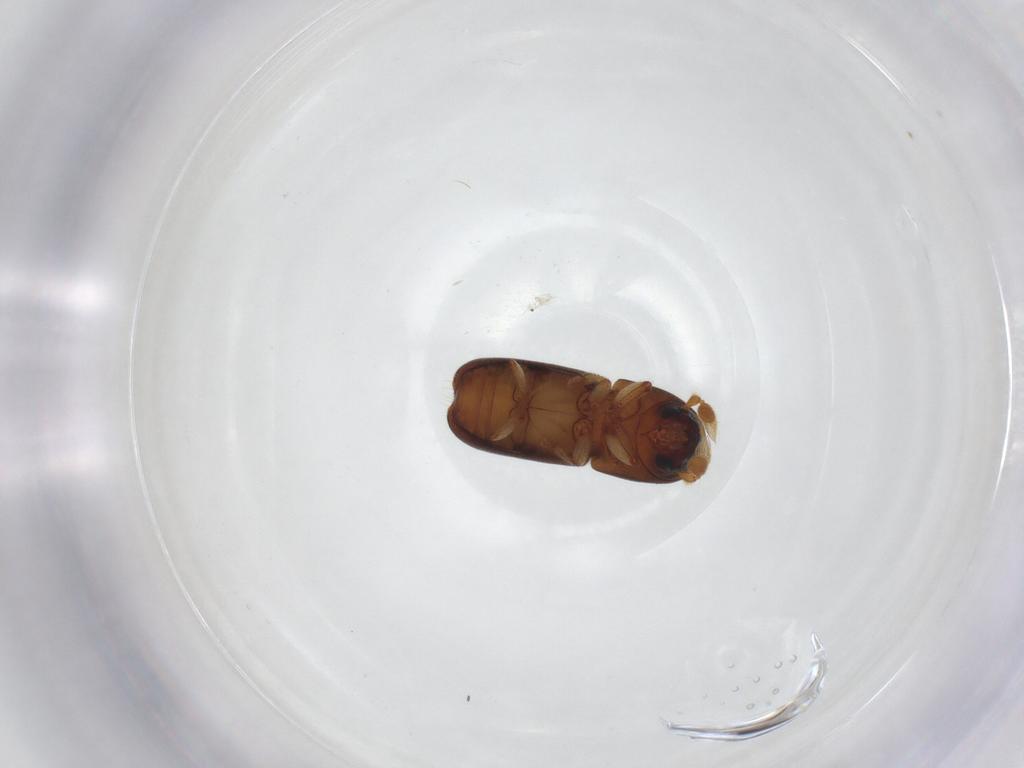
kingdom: Animalia
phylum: Arthropoda
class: Insecta
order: Coleoptera
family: Curculionidae
